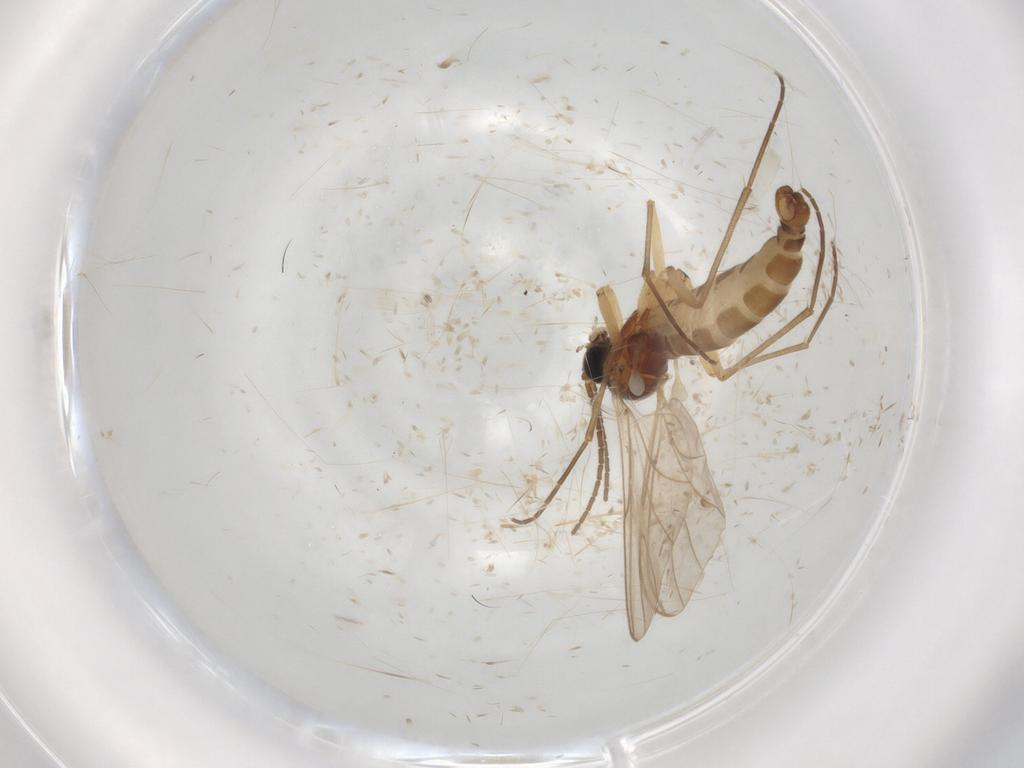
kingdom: Animalia
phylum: Arthropoda
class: Insecta
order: Diptera
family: Sciaridae
